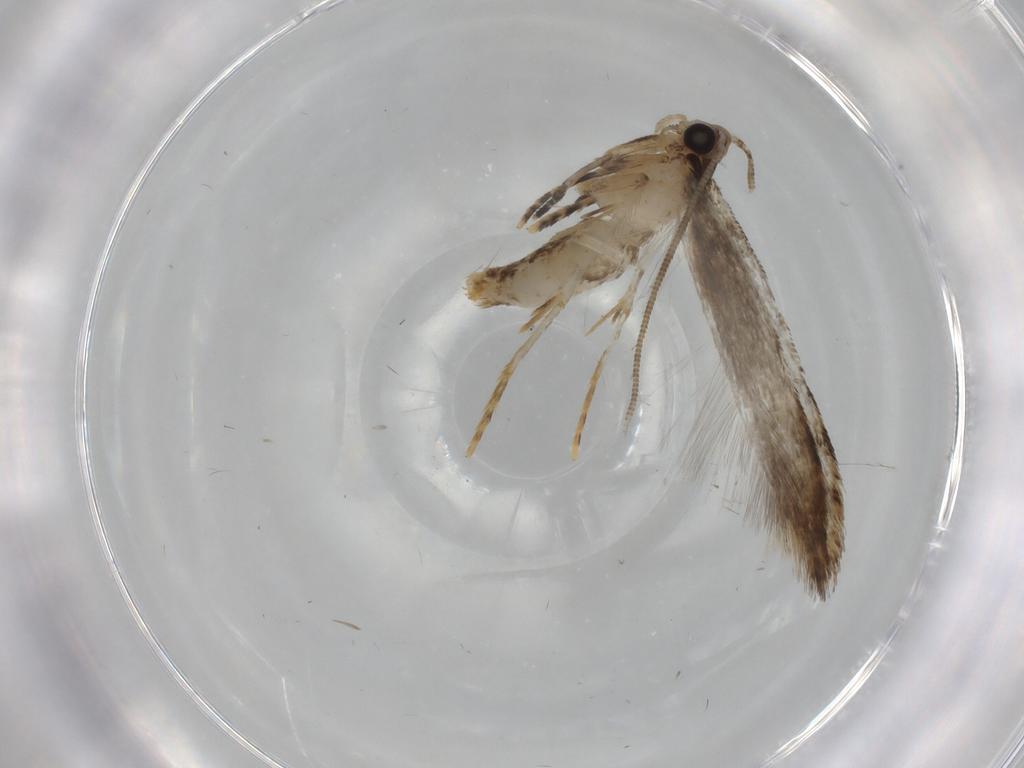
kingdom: Animalia
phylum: Arthropoda
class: Insecta
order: Lepidoptera
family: Tineidae
